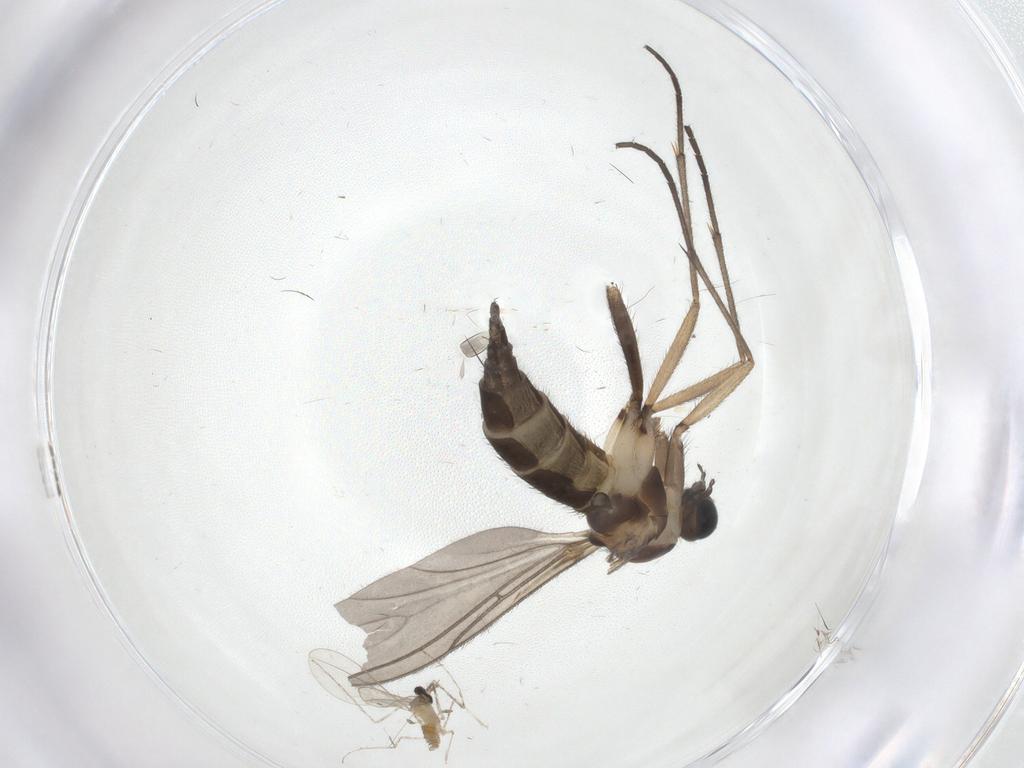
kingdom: Animalia
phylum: Arthropoda
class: Insecta
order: Diptera
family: Sciaridae
